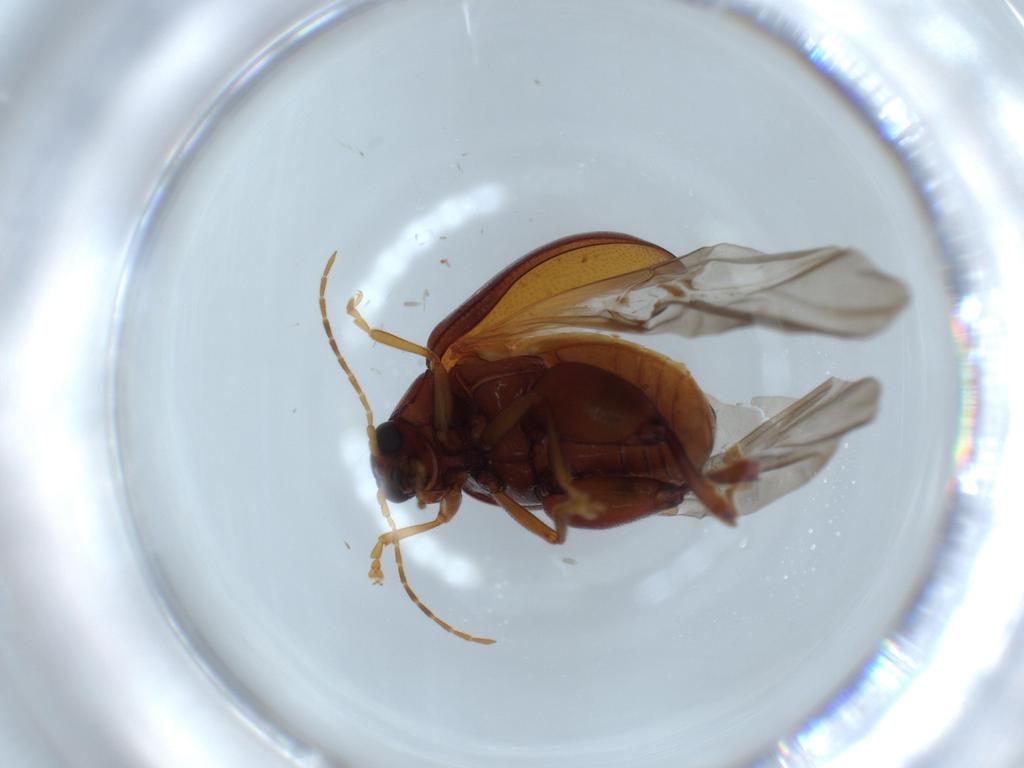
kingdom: Animalia
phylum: Arthropoda
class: Insecta
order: Coleoptera
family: Chrysomelidae
